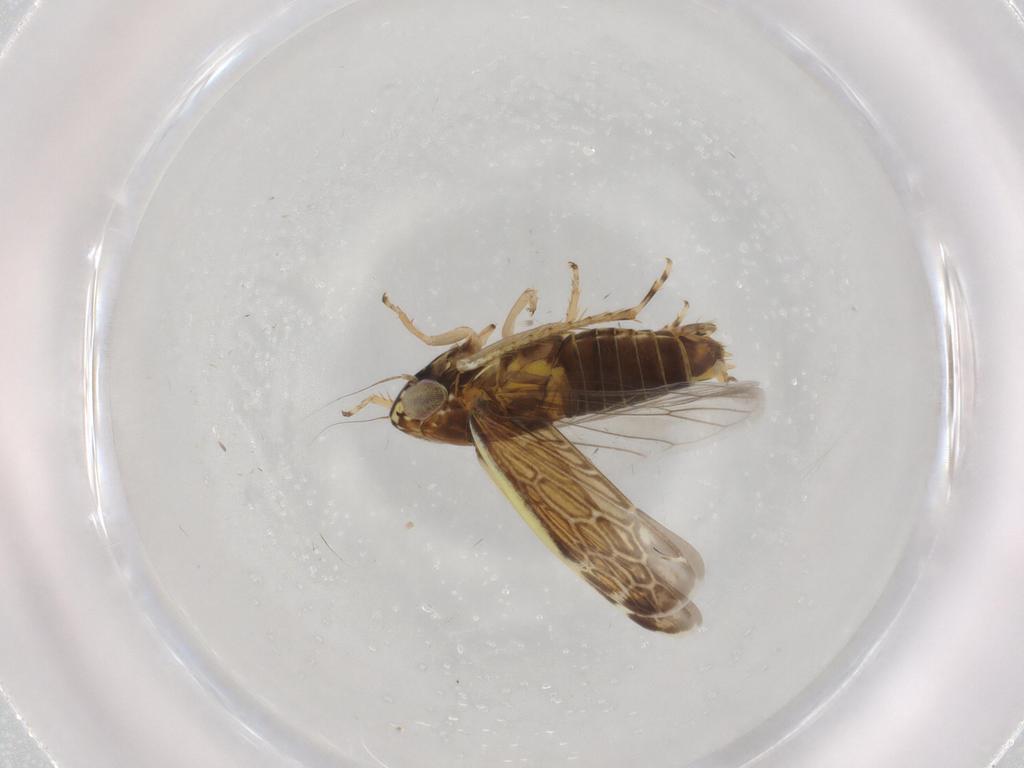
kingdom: Animalia
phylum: Arthropoda
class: Insecta
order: Hemiptera
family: Cicadellidae
